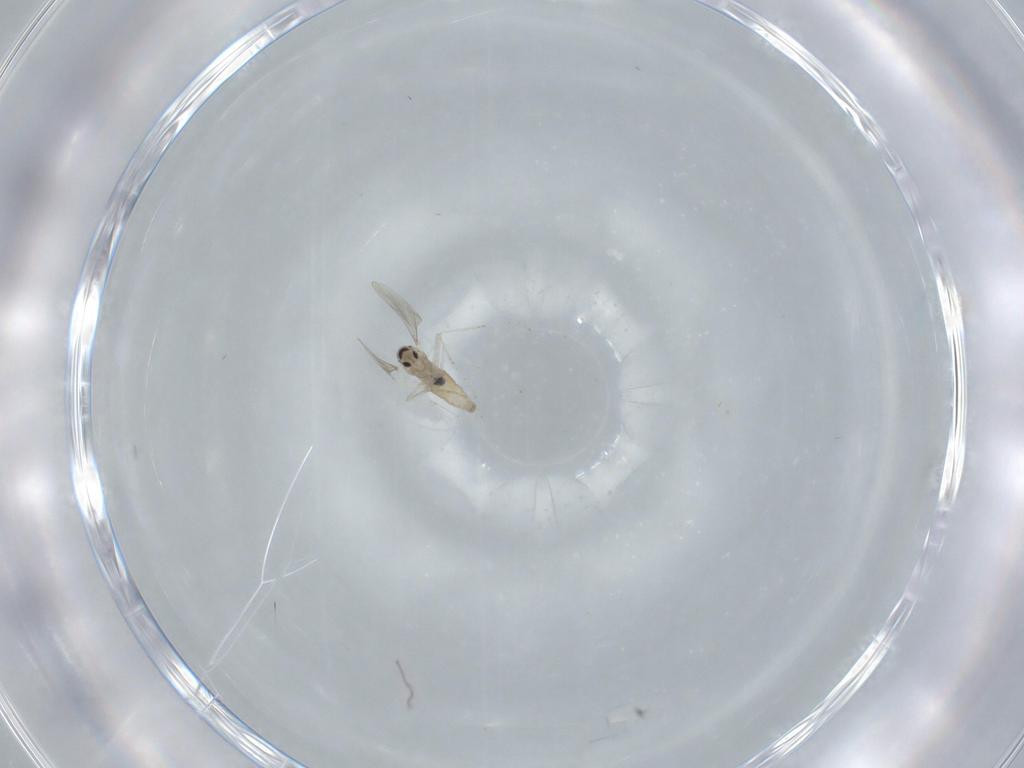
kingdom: Animalia
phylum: Arthropoda
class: Insecta
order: Diptera
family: Cecidomyiidae
